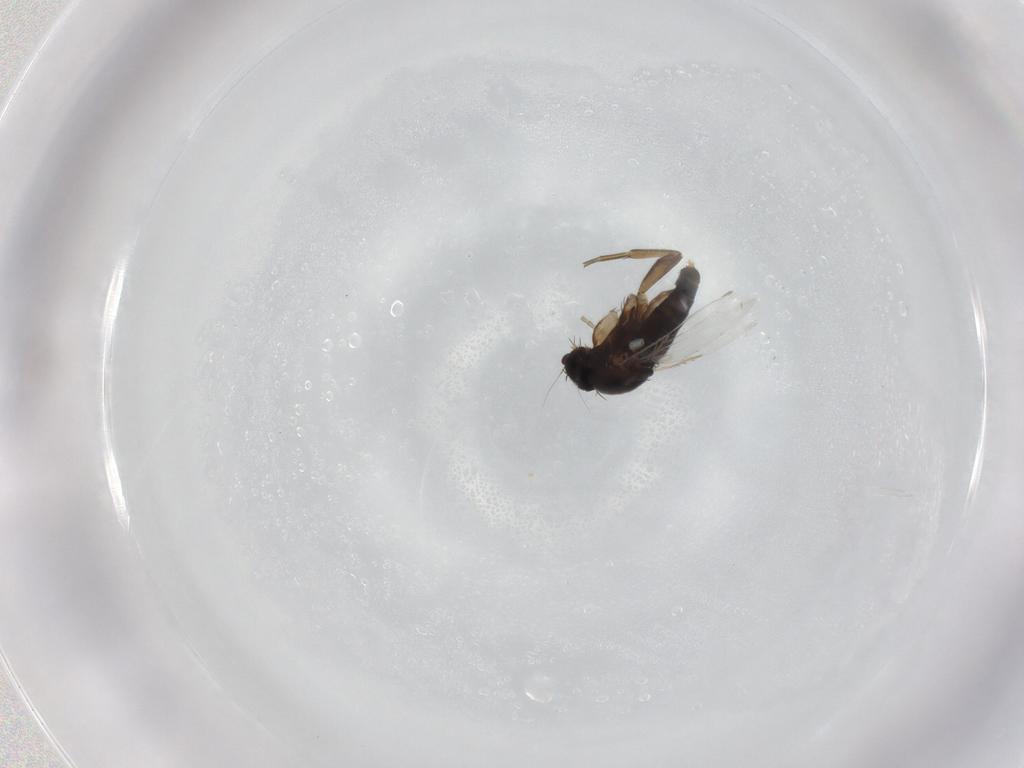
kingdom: Animalia
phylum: Arthropoda
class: Insecta
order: Diptera
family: Phoridae
